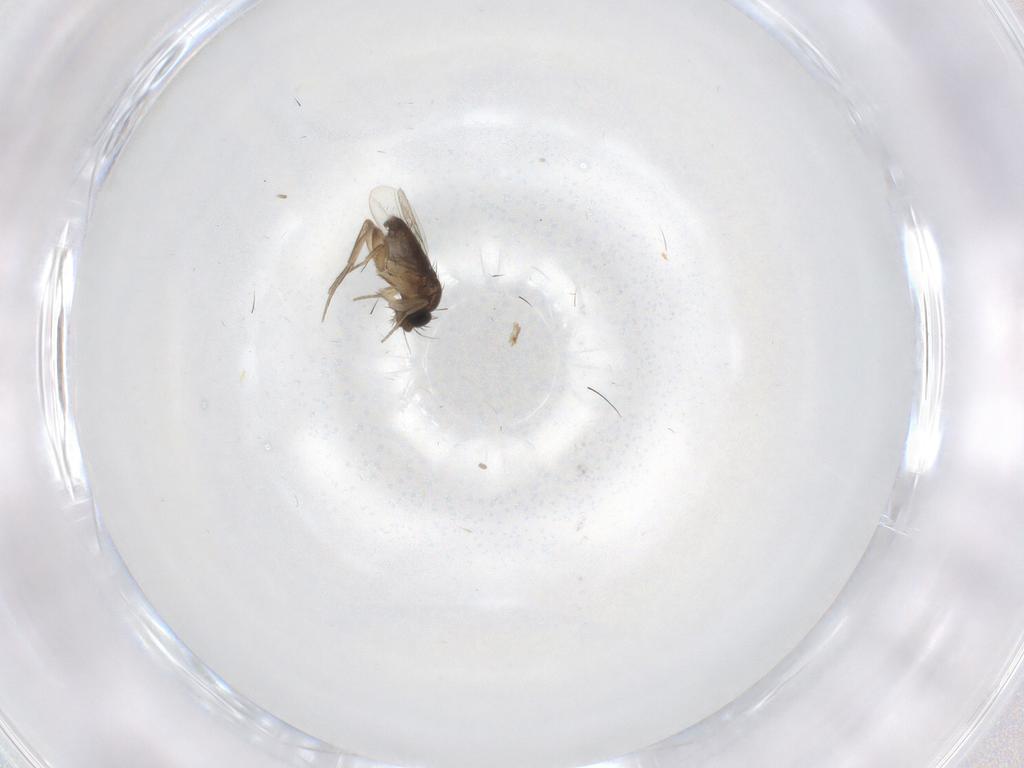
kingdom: Animalia
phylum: Arthropoda
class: Insecta
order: Diptera
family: Phoridae
